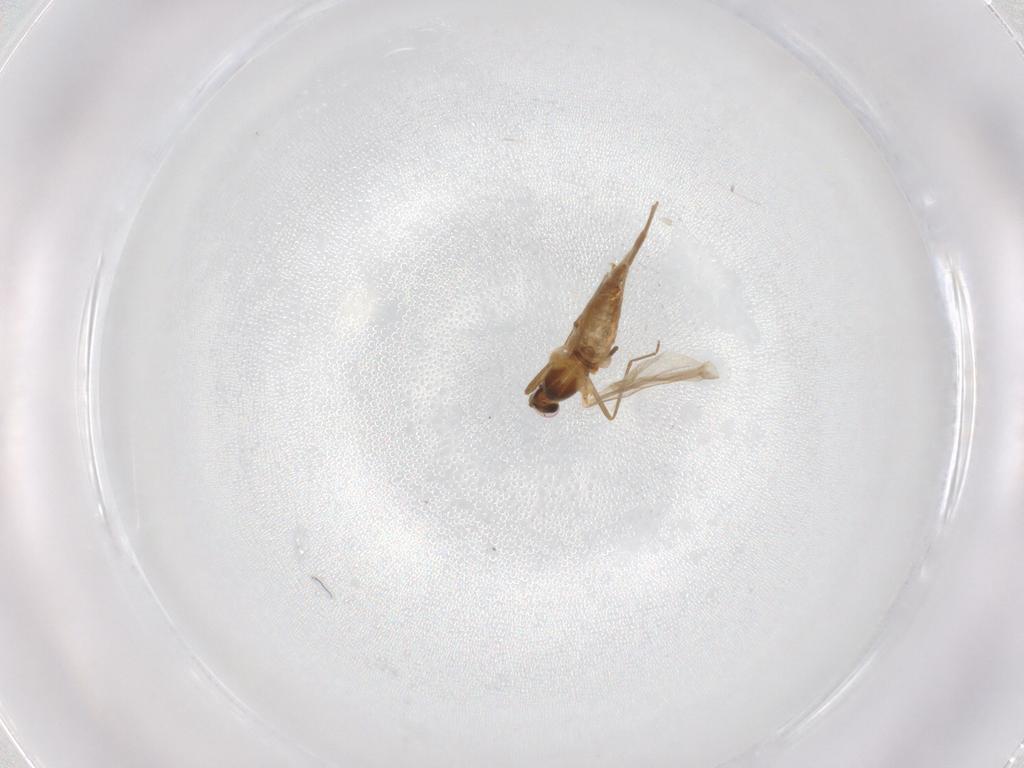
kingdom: Animalia
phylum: Arthropoda
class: Insecta
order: Diptera
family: Cecidomyiidae
